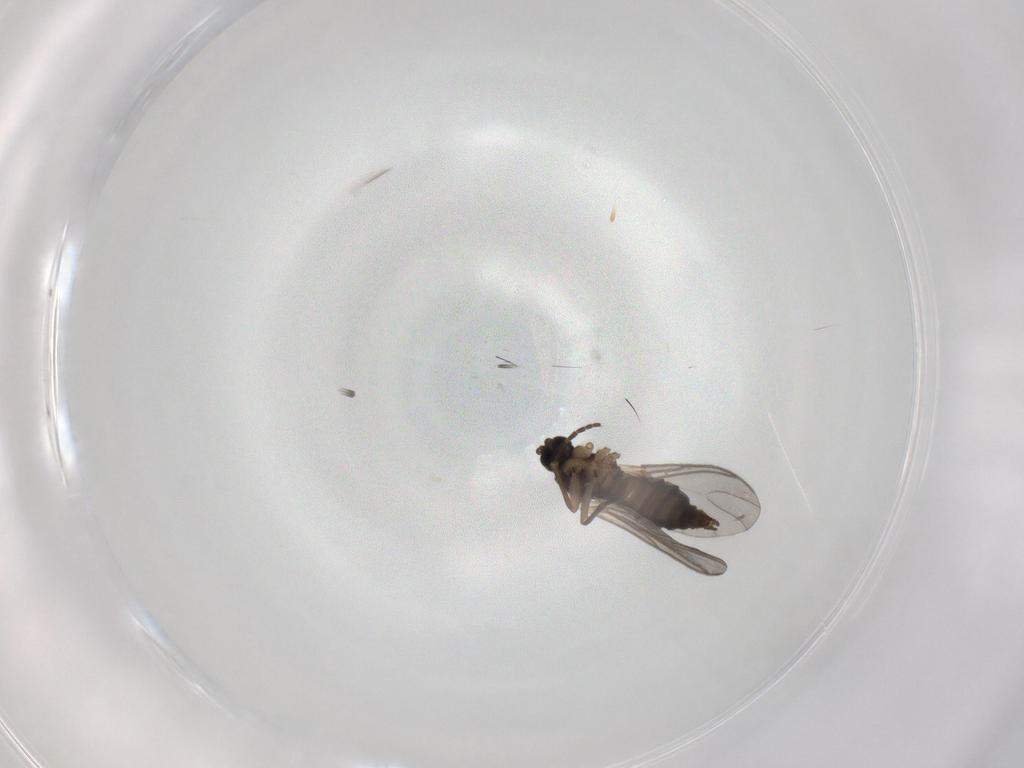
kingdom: Animalia
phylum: Arthropoda
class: Insecta
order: Diptera
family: Sciaridae
